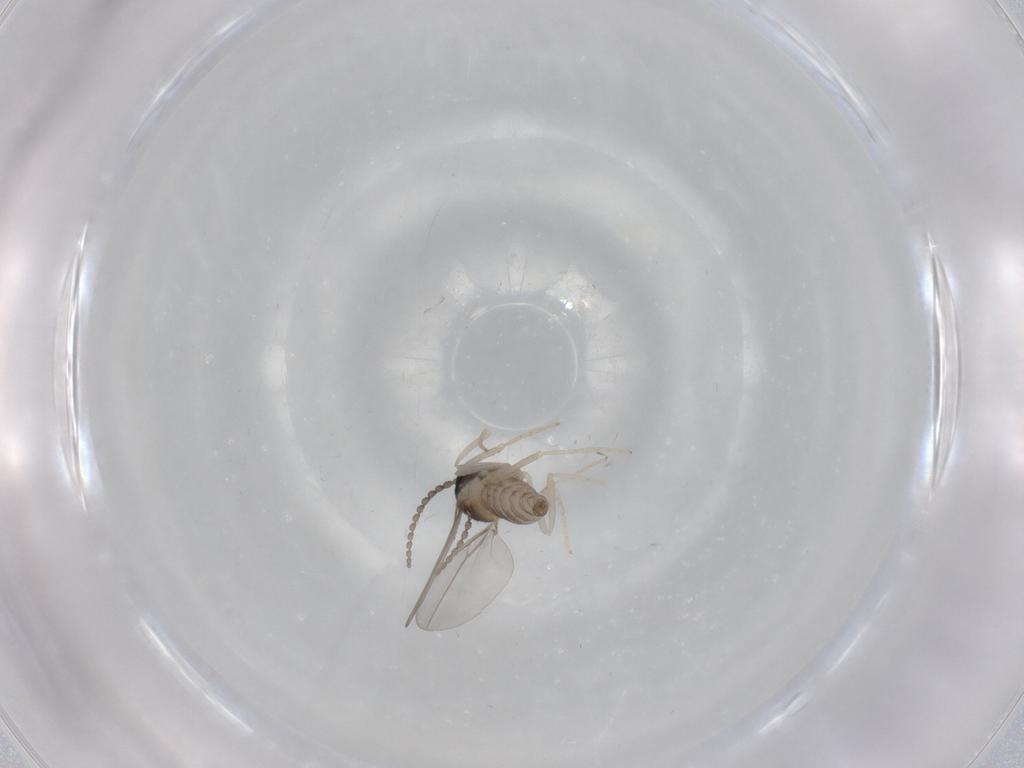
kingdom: Animalia
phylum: Arthropoda
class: Insecta
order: Diptera
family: Cecidomyiidae
